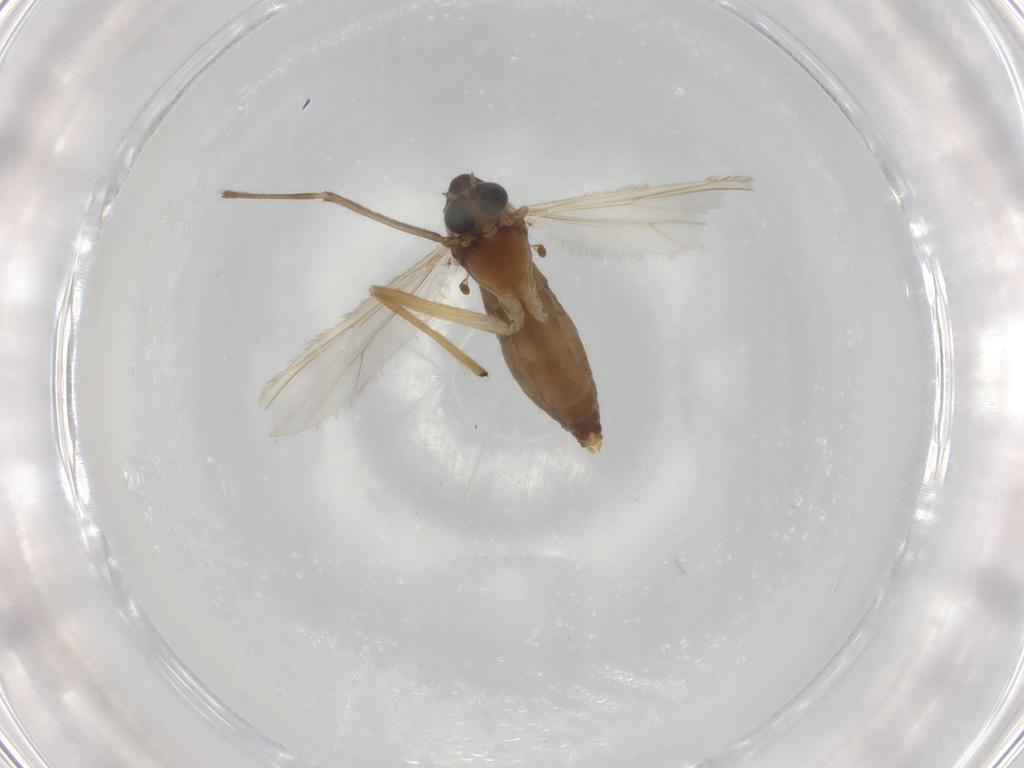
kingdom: Animalia
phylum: Arthropoda
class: Insecta
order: Diptera
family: Chironomidae
